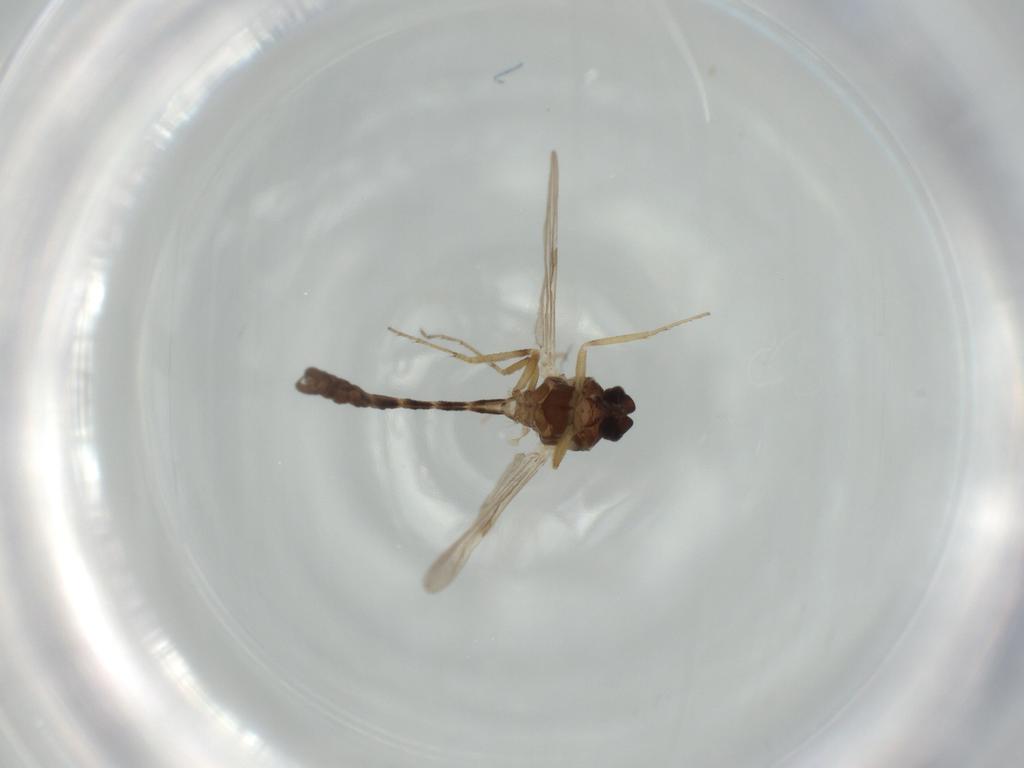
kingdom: Animalia
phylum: Arthropoda
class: Insecta
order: Diptera
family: Ceratopogonidae
